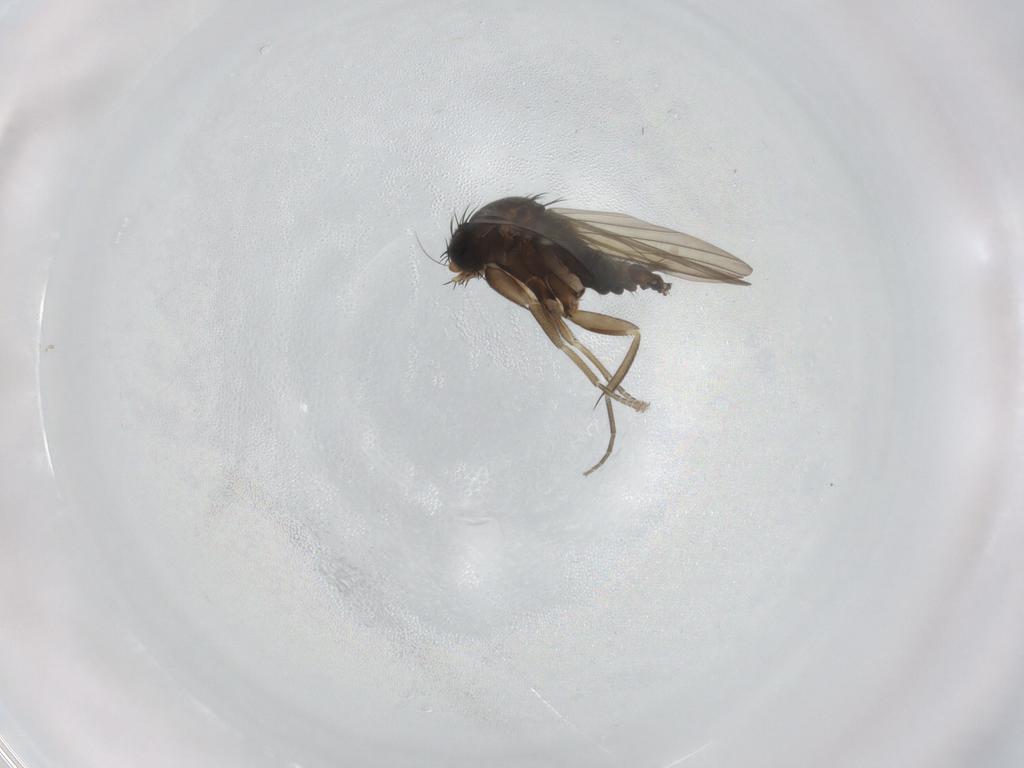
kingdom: Animalia
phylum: Arthropoda
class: Insecta
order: Diptera
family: Phoridae
